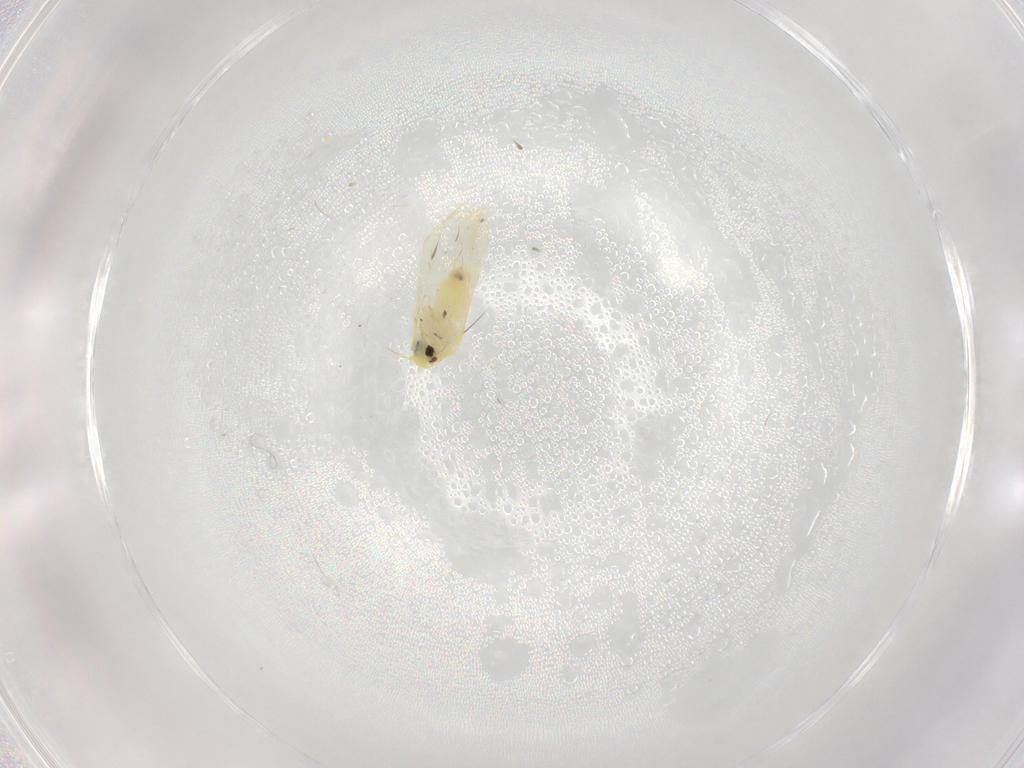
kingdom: Animalia
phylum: Arthropoda
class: Insecta
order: Hemiptera
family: Aleyrodidae
